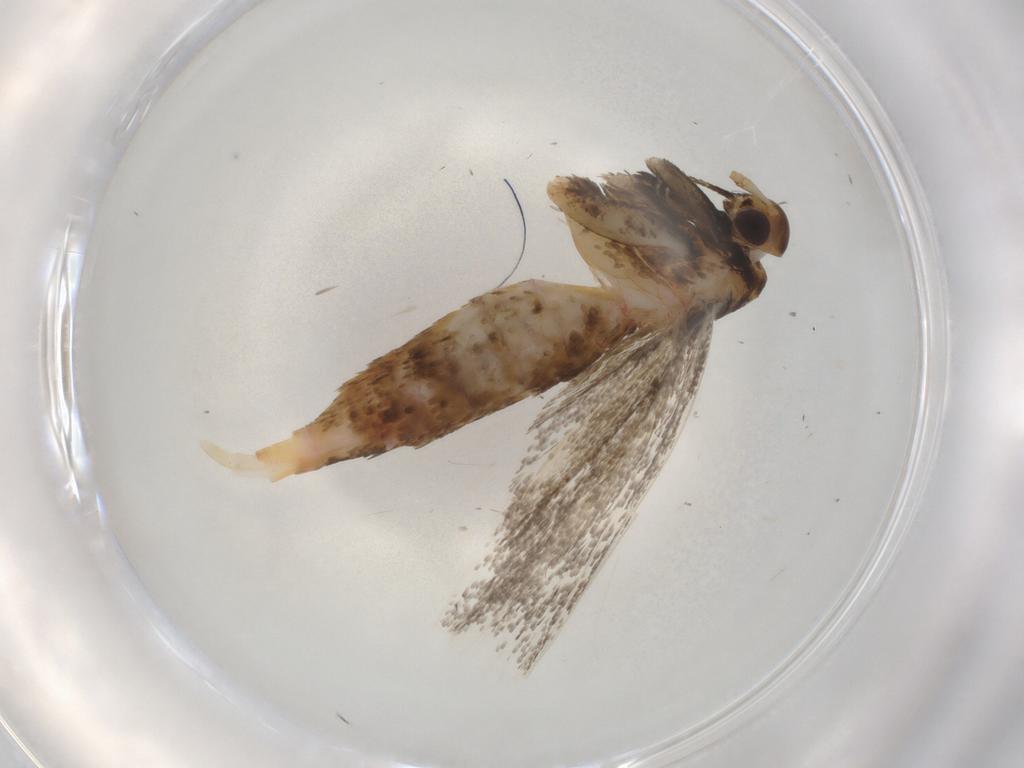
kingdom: Animalia
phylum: Arthropoda
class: Insecta
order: Lepidoptera
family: Lecithoceridae
